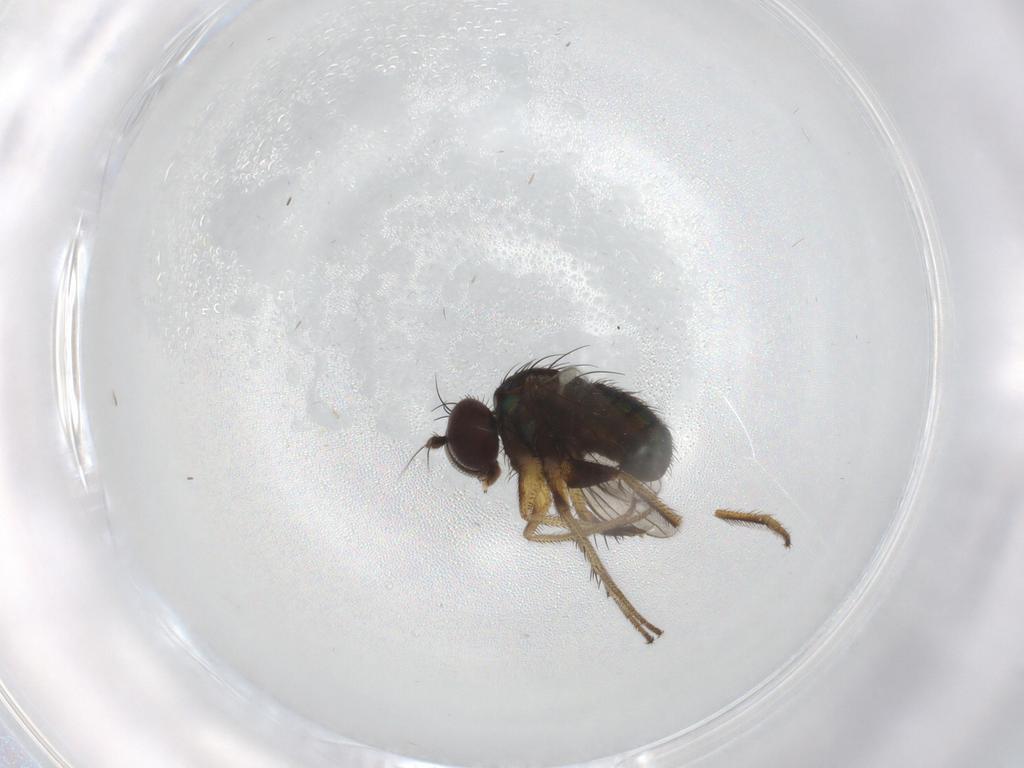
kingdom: Animalia
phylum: Arthropoda
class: Insecta
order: Diptera
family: Dolichopodidae
